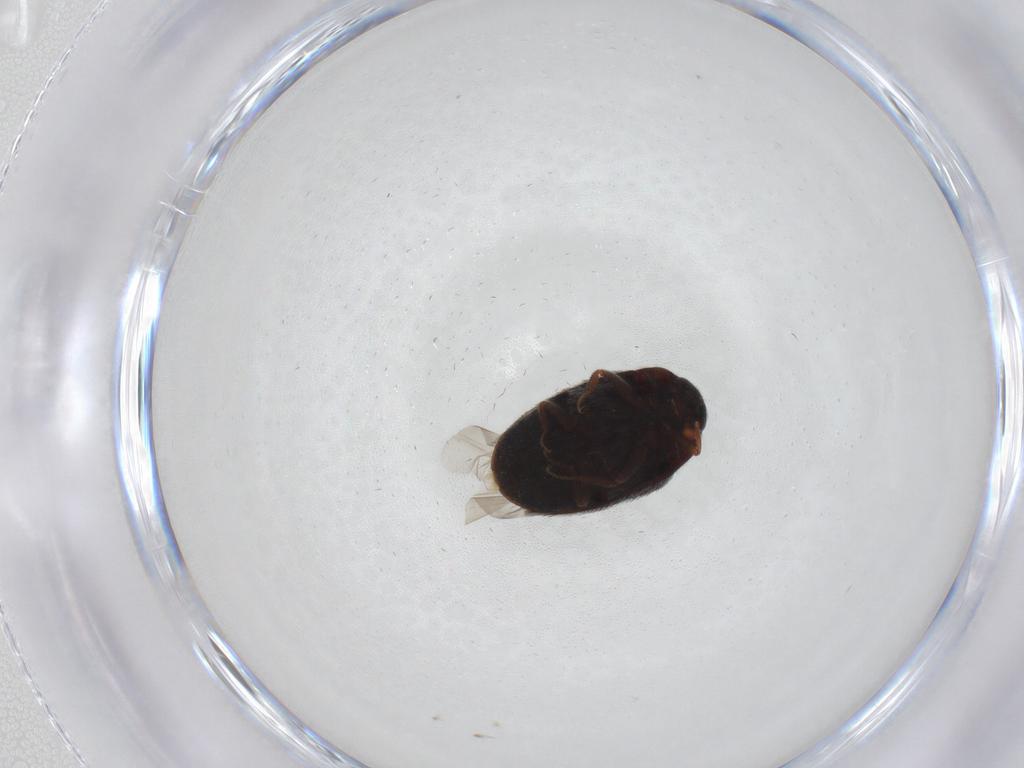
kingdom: Animalia
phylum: Arthropoda
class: Insecta
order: Coleoptera
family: Scraptiidae
